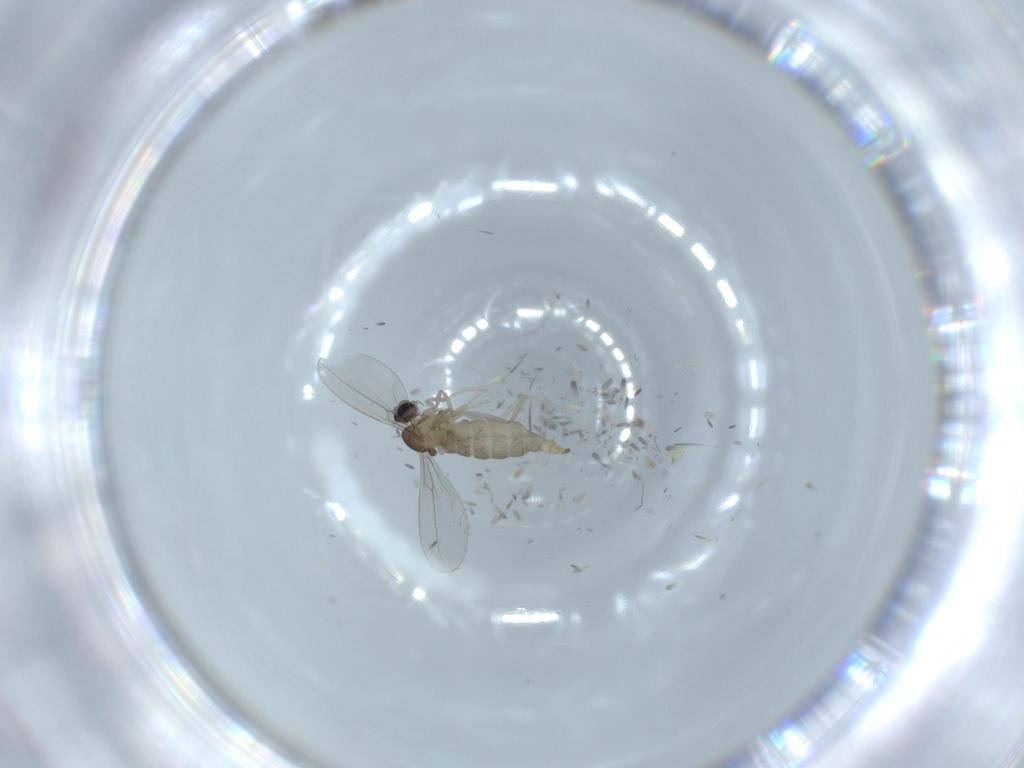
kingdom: Animalia
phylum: Arthropoda
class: Insecta
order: Diptera
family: Cecidomyiidae
